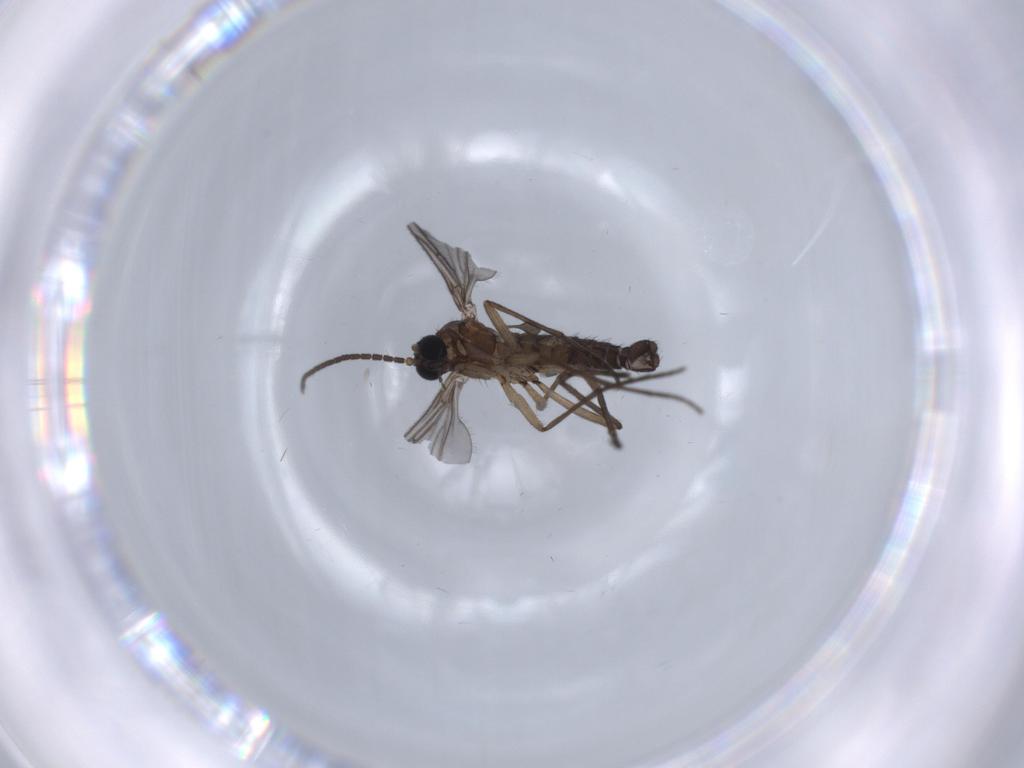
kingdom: Animalia
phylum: Arthropoda
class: Insecta
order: Diptera
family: Sciaridae
